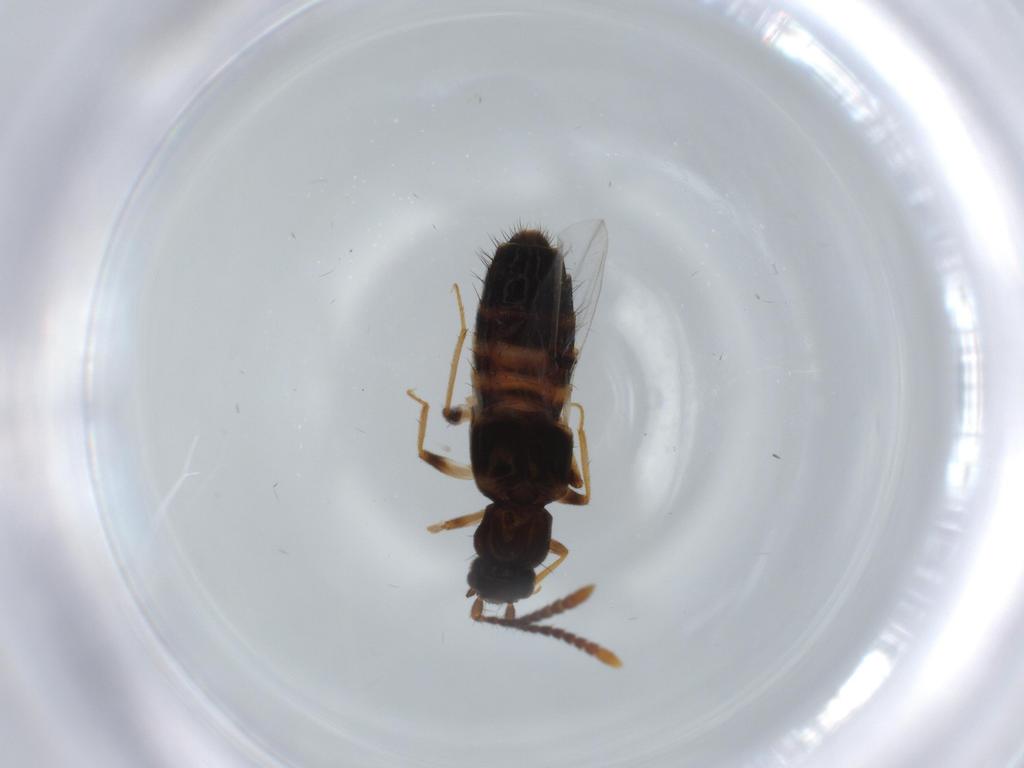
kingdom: Animalia
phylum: Arthropoda
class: Insecta
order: Coleoptera
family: Staphylinidae
